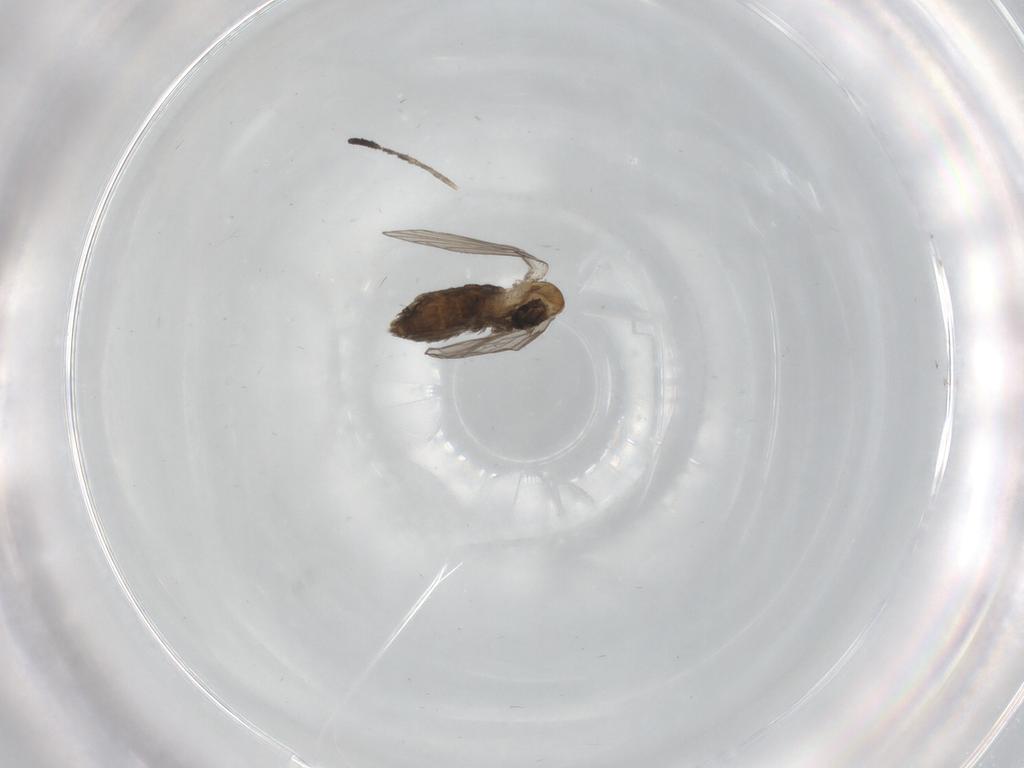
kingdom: Animalia
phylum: Arthropoda
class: Insecta
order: Diptera
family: Psychodidae
